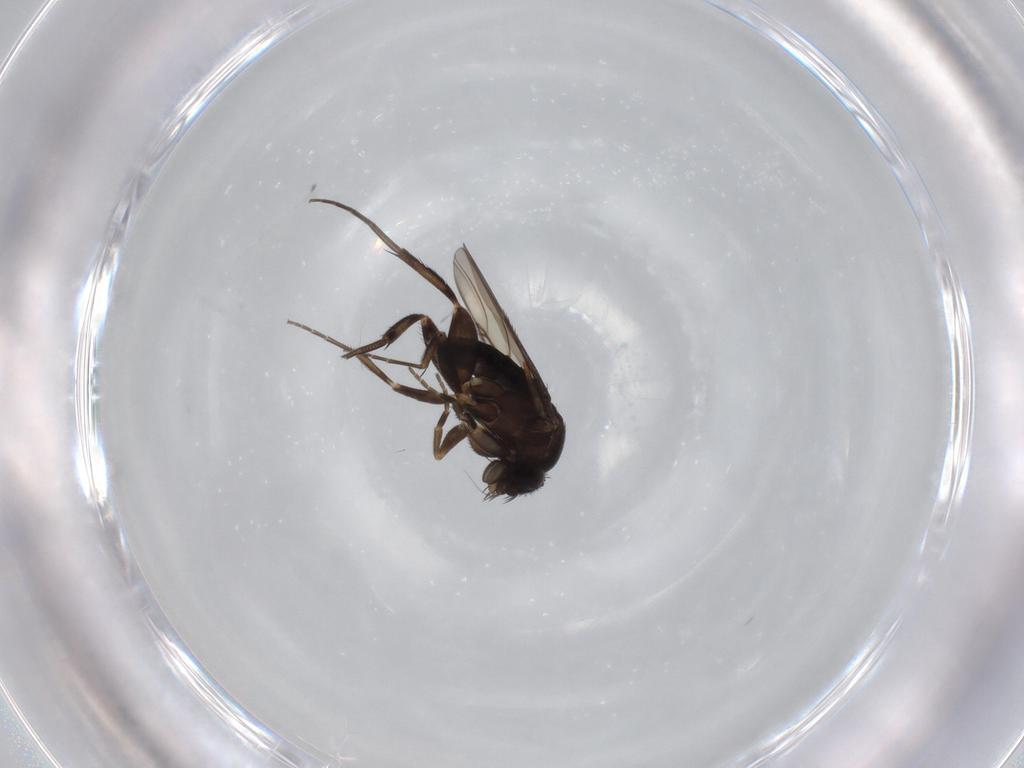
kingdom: Animalia
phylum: Arthropoda
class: Insecta
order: Diptera
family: Phoridae
